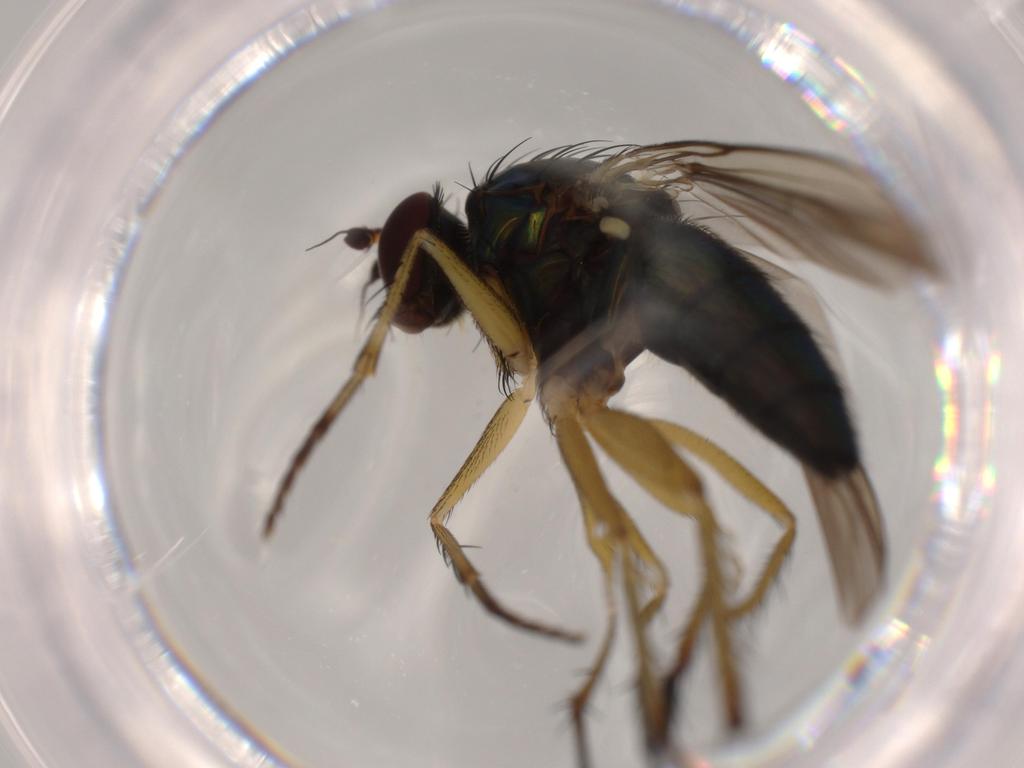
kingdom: Animalia
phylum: Arthropoda
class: Insecta
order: Diptera
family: Dolichopodidae
